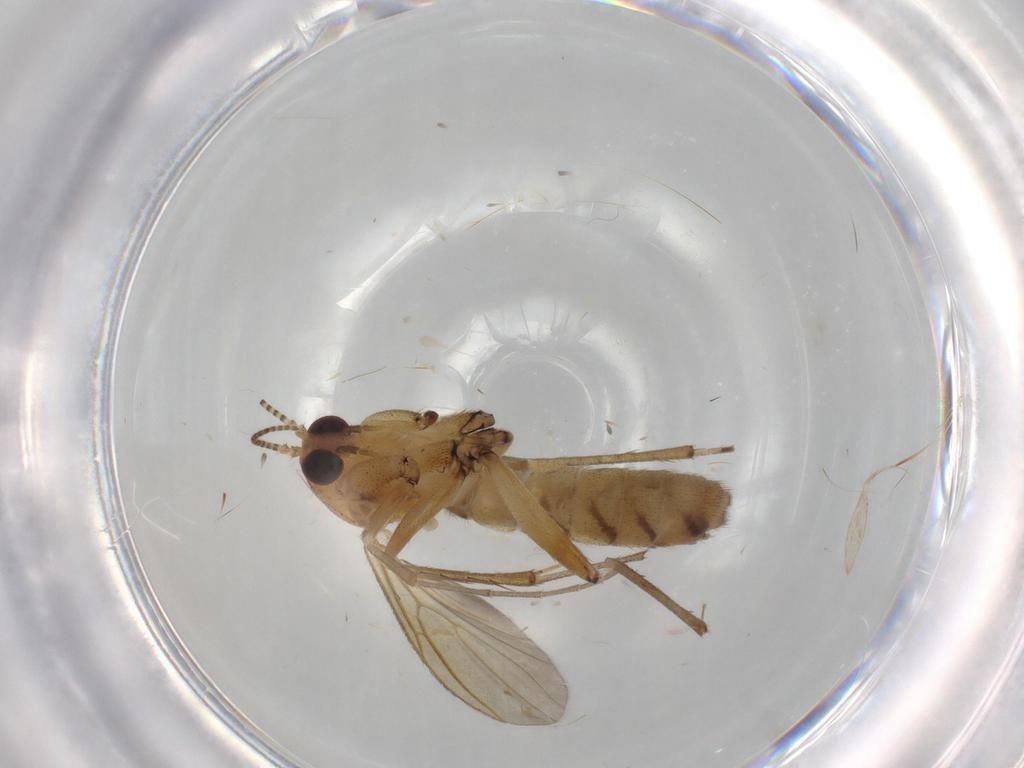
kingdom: Animalia
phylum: Arthropoda
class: Insecta
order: Diptera
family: Mycetophilidae
